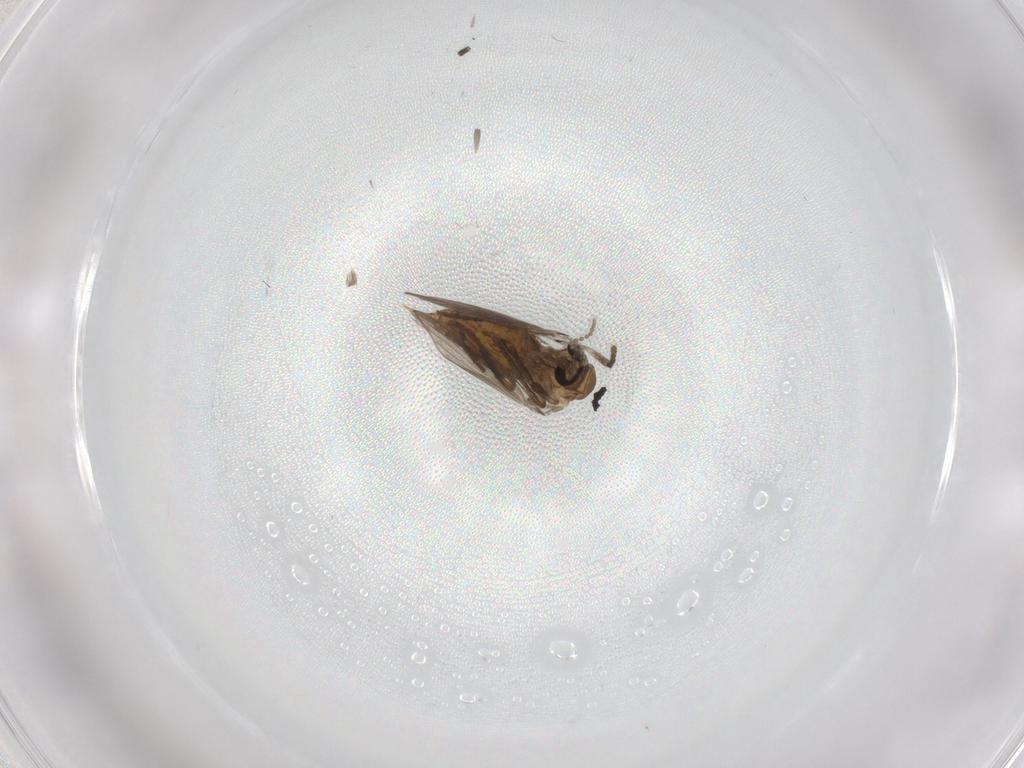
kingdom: Animalia
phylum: Arthropoda
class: Insecta
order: Diptera
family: Psychodidae
